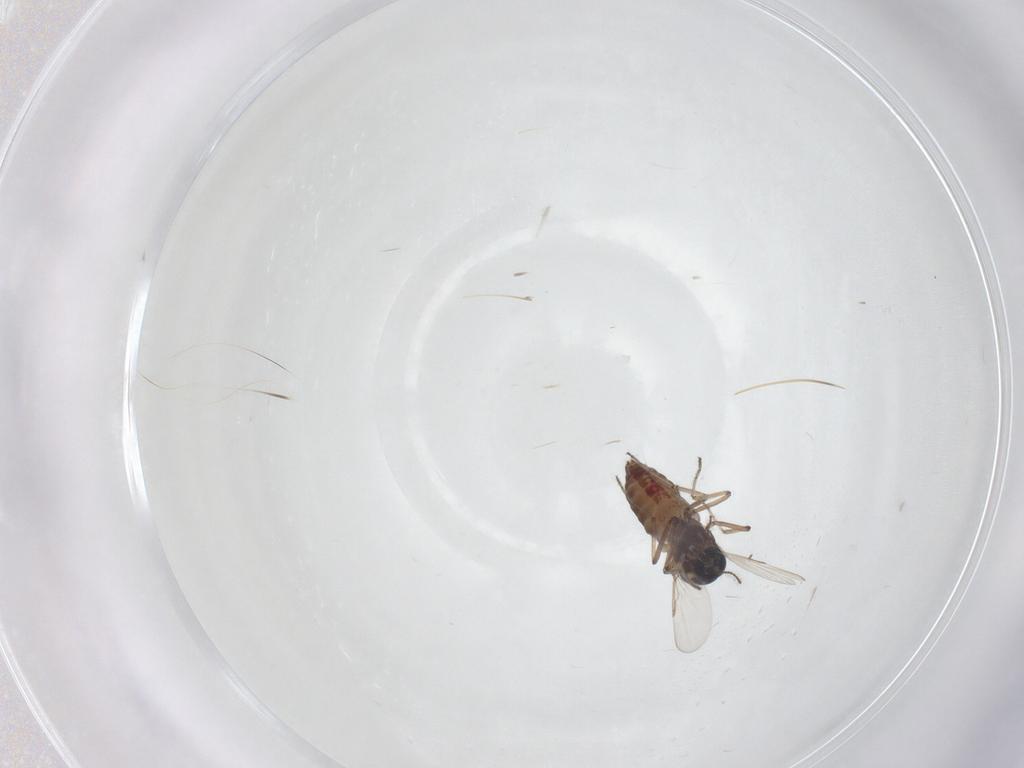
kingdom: Animalia
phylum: Arthropoda
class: Insecta
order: Diptera
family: Ceratopogonidae
